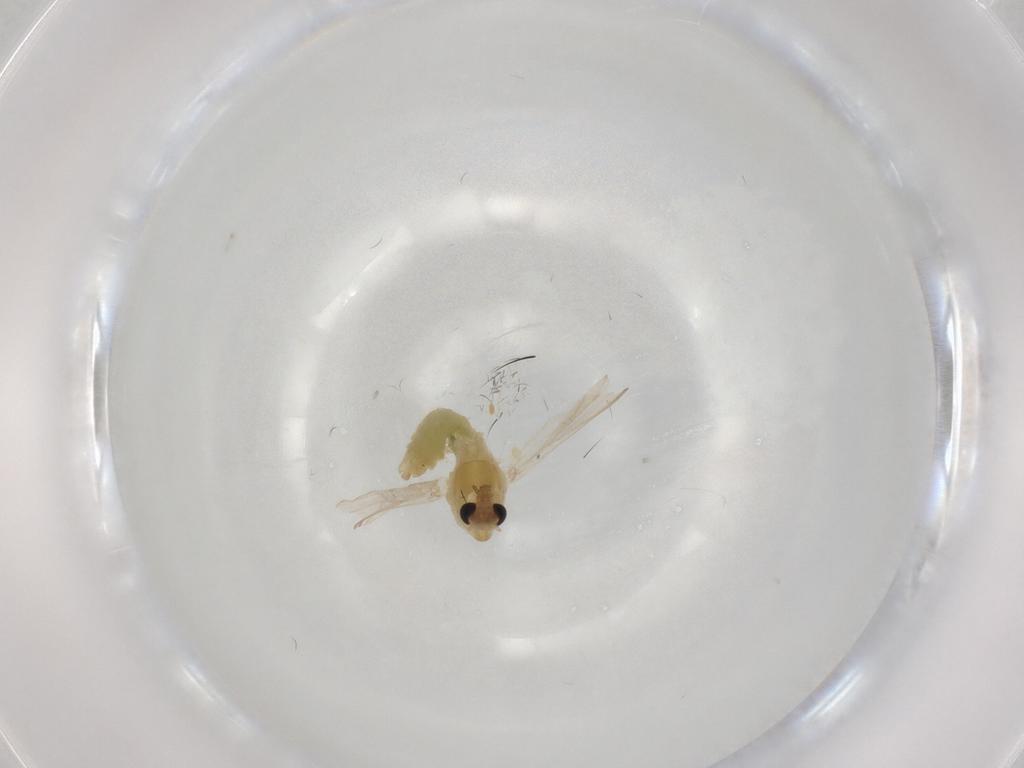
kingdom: Animalia
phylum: Arthropoda
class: Insecta
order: Diptera
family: Chironomidae
